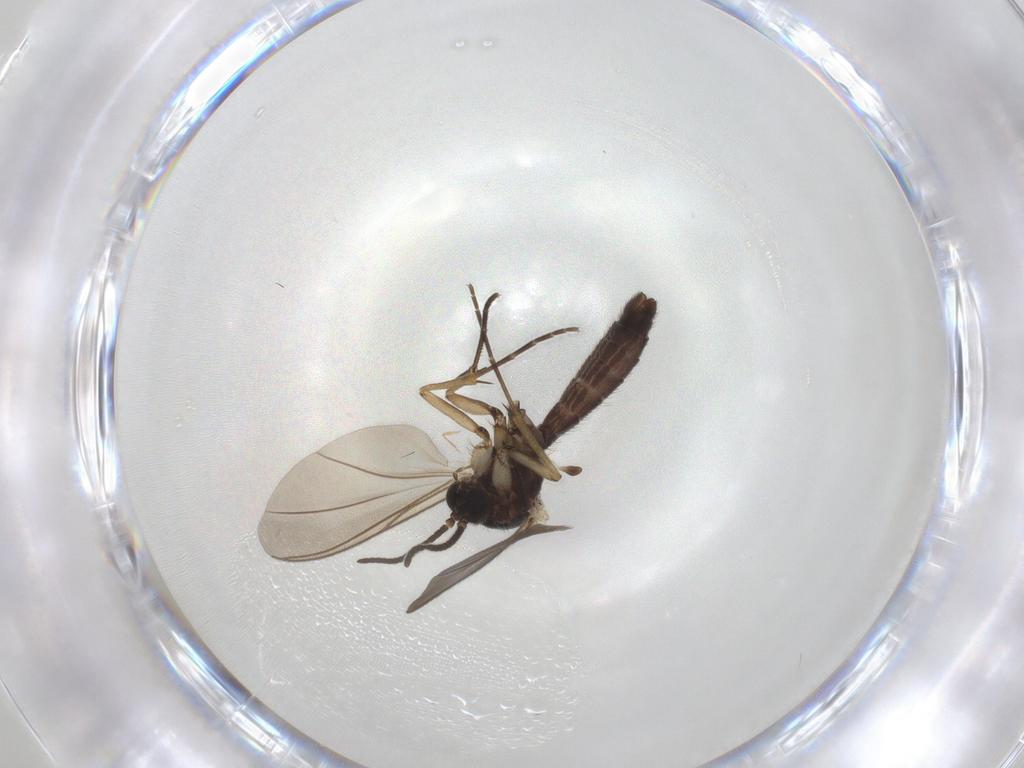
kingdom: Animalia
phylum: Arthropoda
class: Insecta
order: Diptera
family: Mycetophilidae
